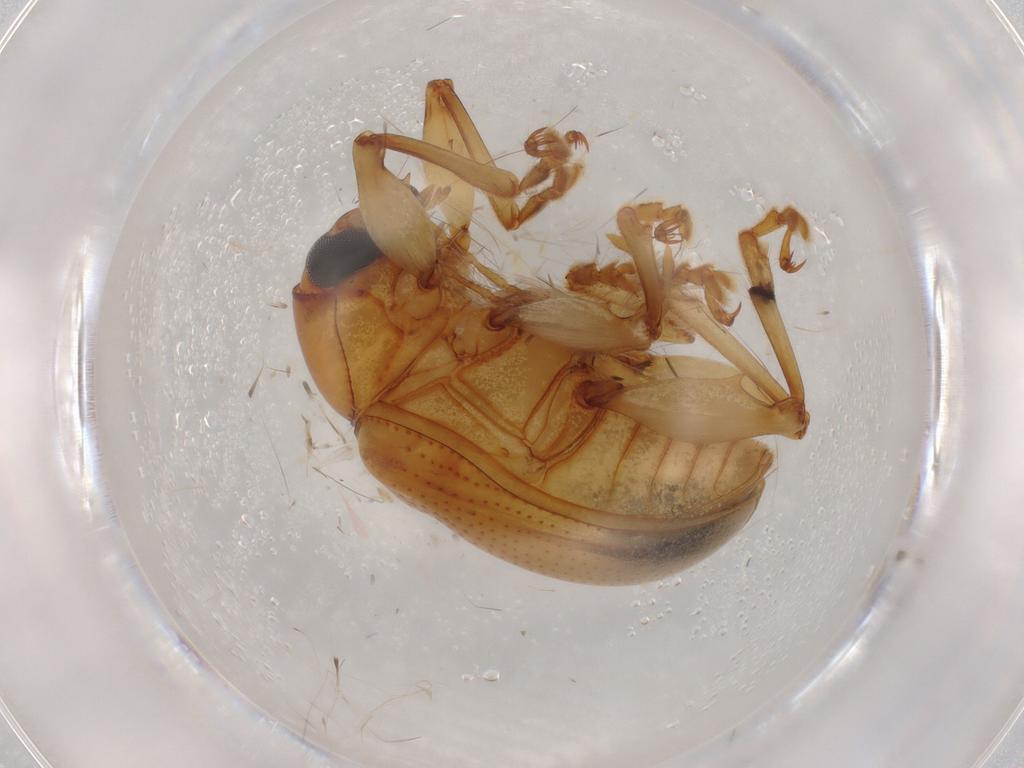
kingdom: Animalia
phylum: Arthropoda
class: Insecta
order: Coleoptera
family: Chrysomelidae
